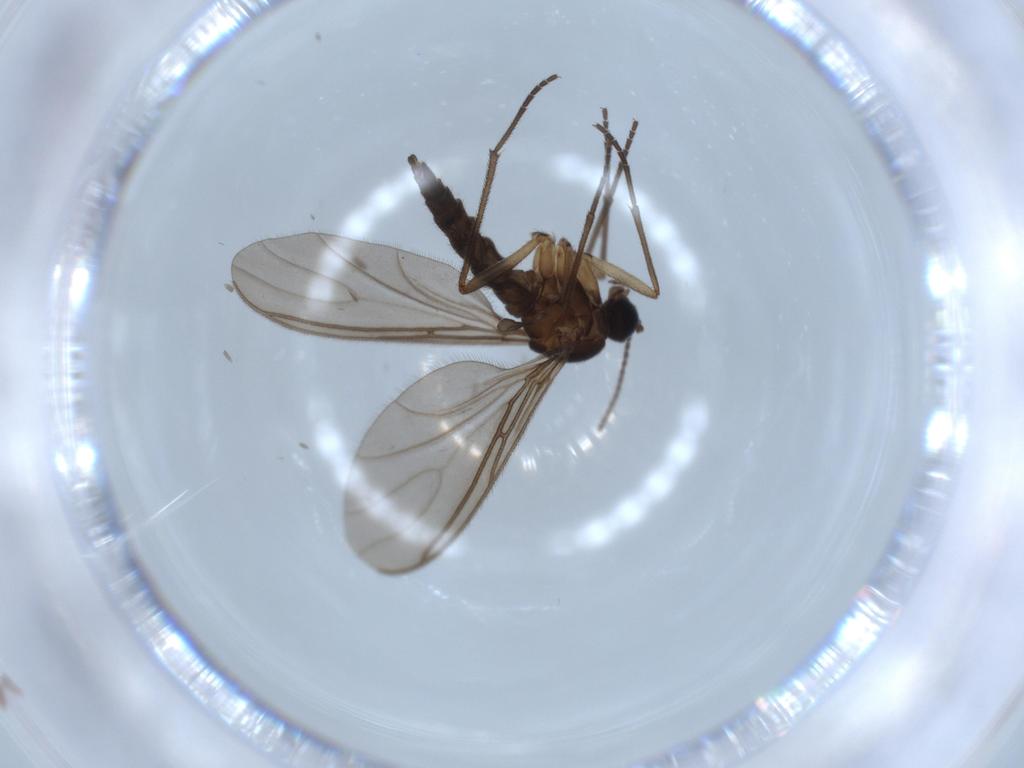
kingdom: Animalia
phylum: Arthropoda
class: Insecta
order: Diptera
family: Sciaridae
